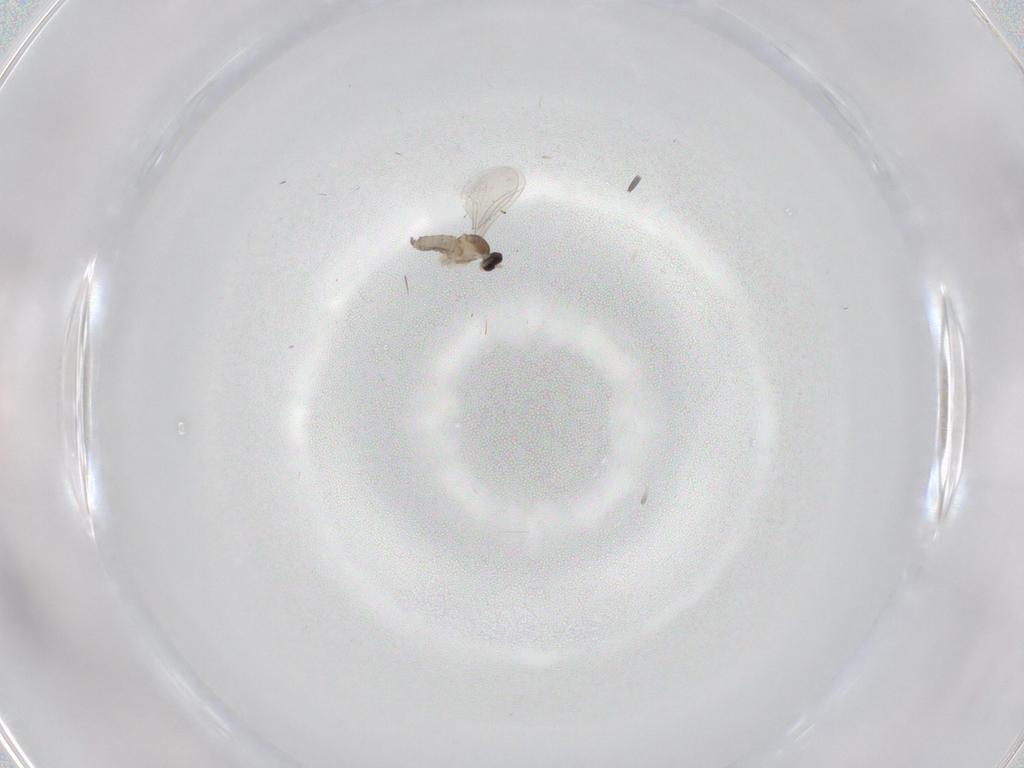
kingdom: Animalia
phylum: Arthropoda
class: Insecta
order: Diptera
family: Cecidomyiidae
